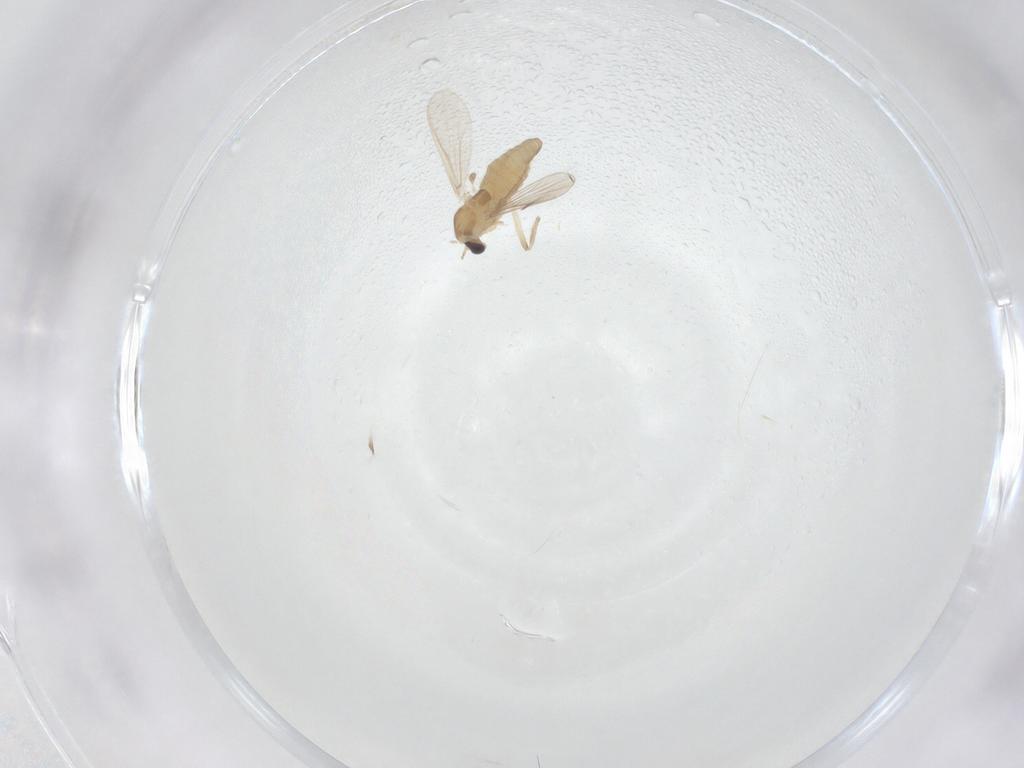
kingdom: Animalia
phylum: Arthropoda
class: Insecta
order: Diptera
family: Chironomidae
